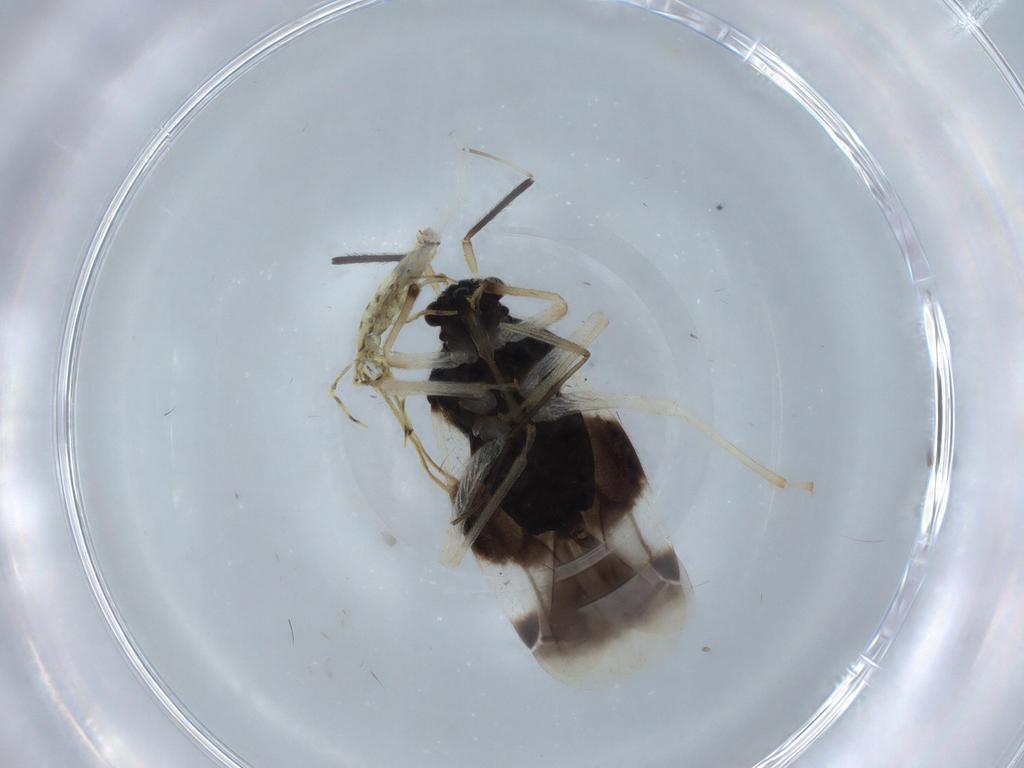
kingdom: Animalia
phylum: Arthropoda
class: Insecta
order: Hemiptera
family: Miridae
